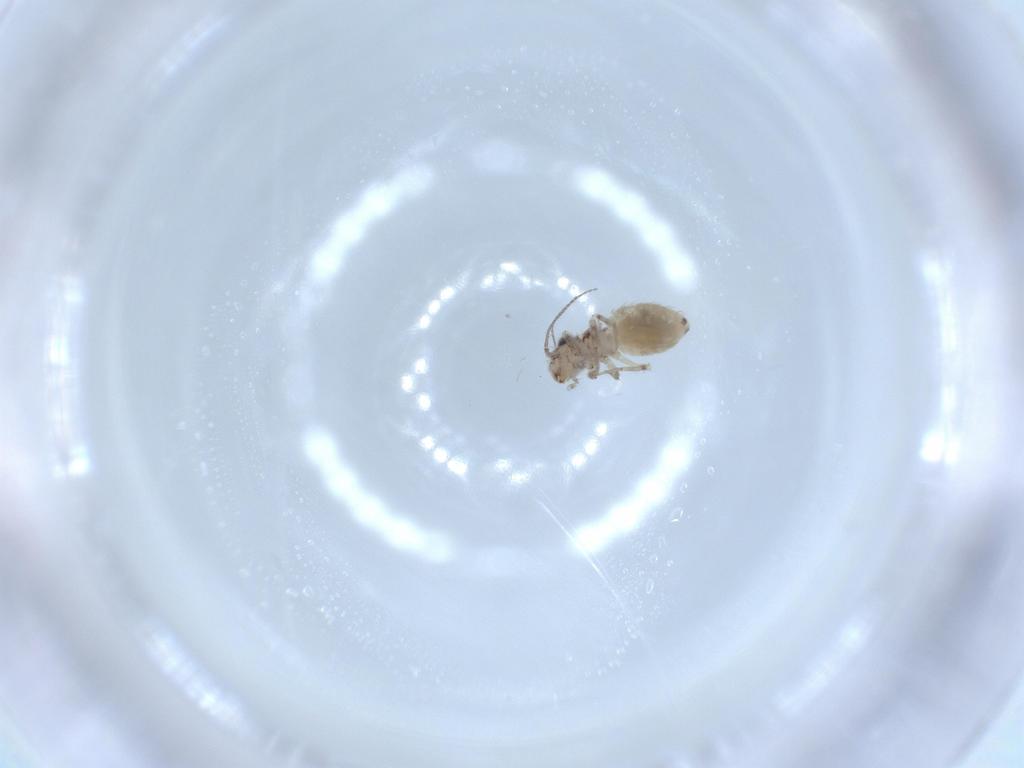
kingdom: Animalia
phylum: Arthropoda
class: Insecta
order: Psocodea
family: Lepidopsocidae
